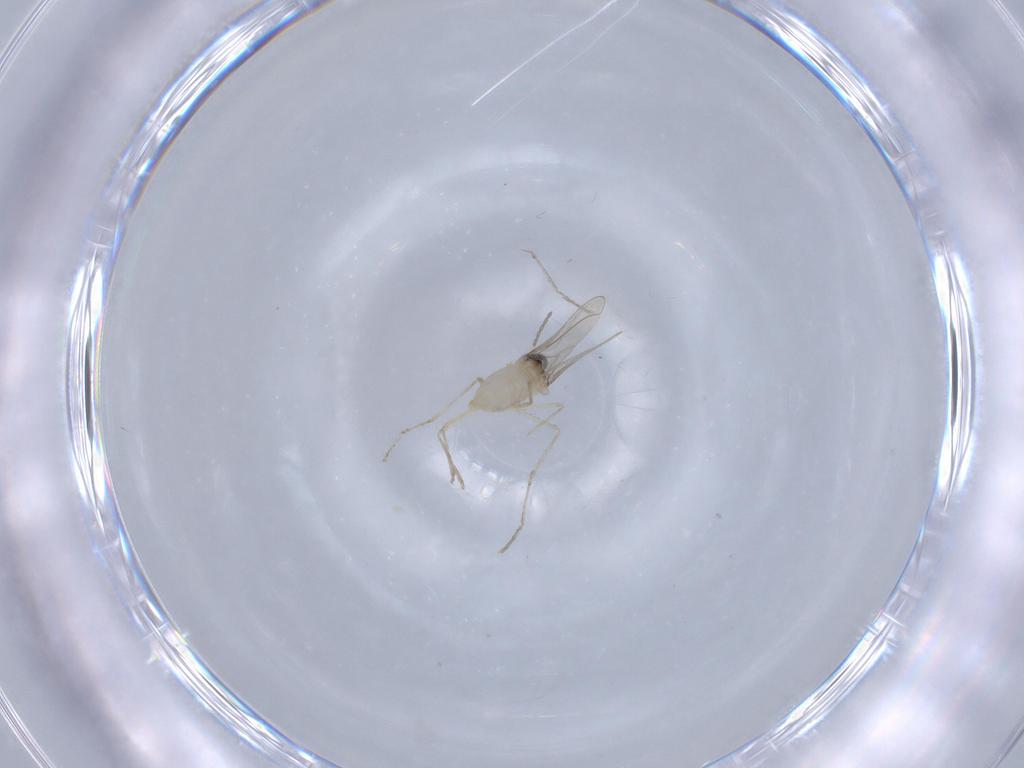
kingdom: Animalia
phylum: Arthropoda
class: Insecta
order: Diptera
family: Cecidomyiidae
